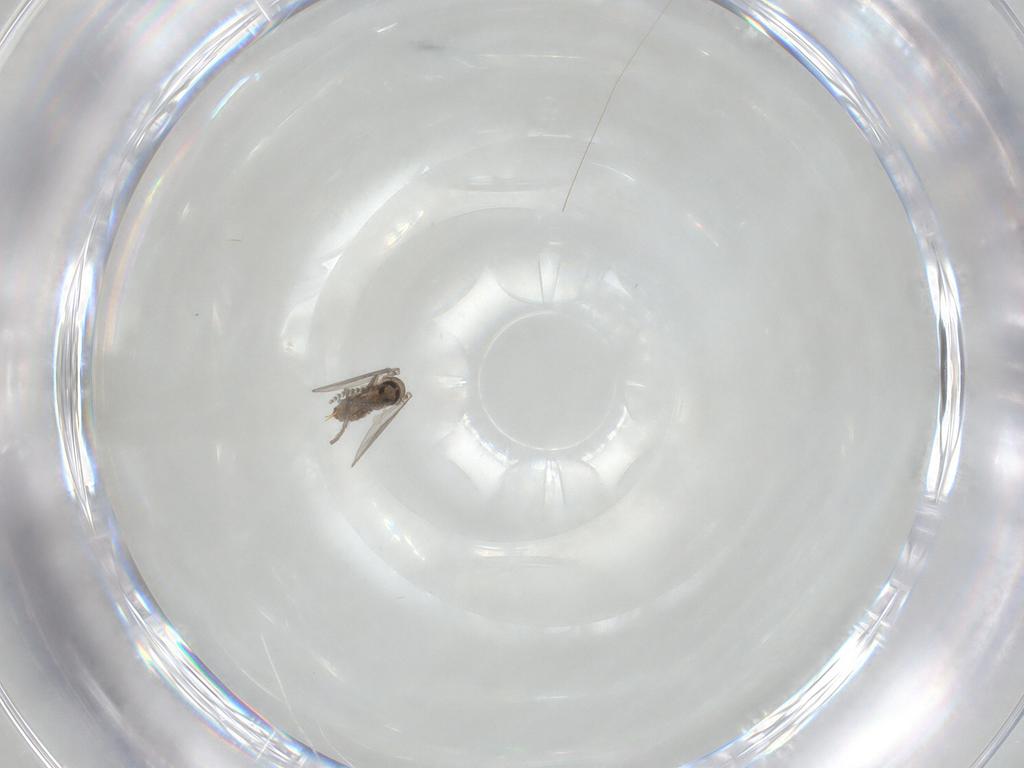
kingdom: Animalia
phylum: Arthropoda
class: Insecta
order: Diptera
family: Psychodidae
